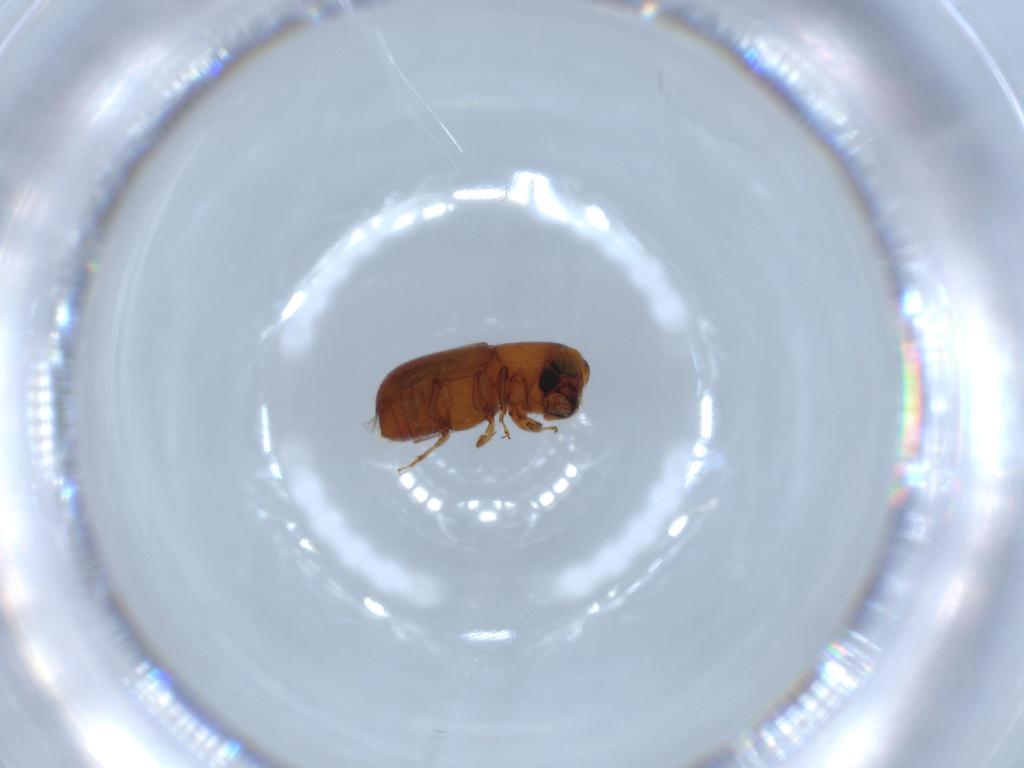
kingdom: Animalia
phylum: Arthropoda
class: Insecta
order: Coleoptera
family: Curculionidae
